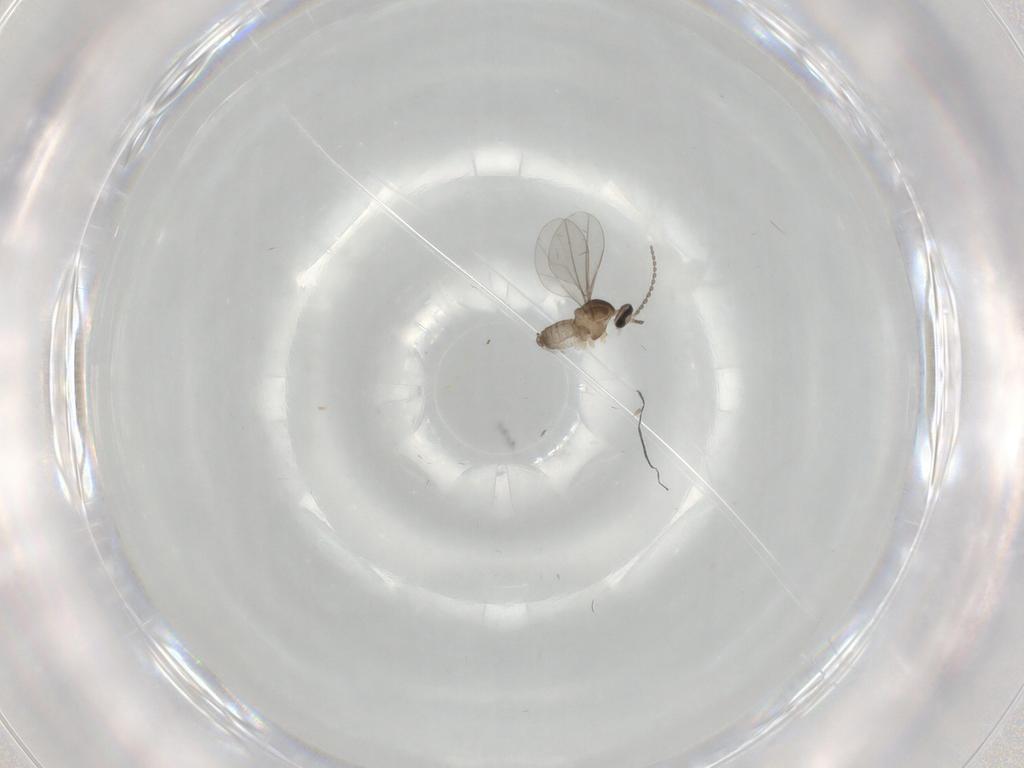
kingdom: Animalia
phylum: Arthropoda
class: Insecta
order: Diptera
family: Cecidomyiidae
